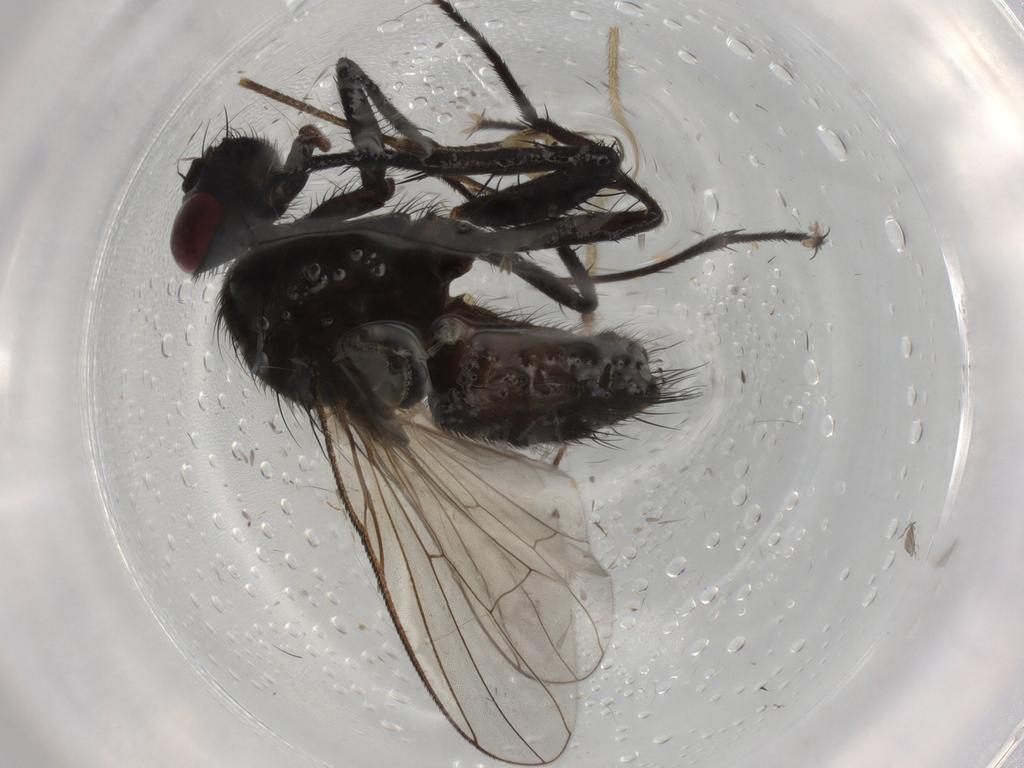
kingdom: Animalia
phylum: Arthropoda
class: Insecta
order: Diptera
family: Muscidae
